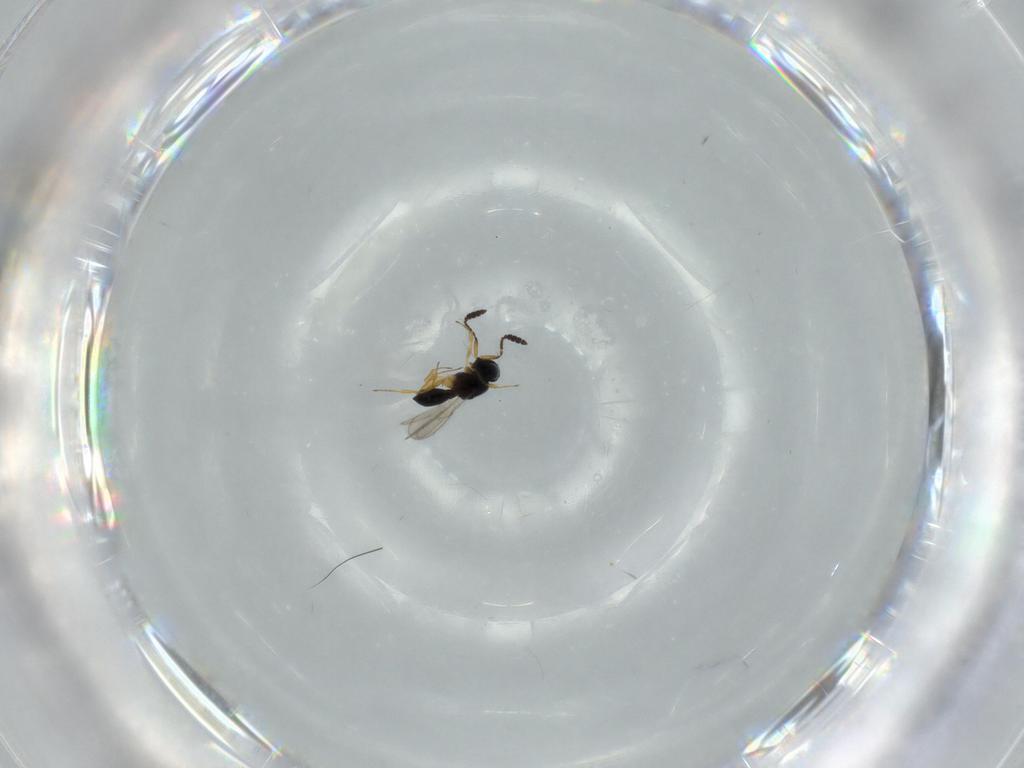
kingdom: Animalia
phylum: Arthropoda
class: Insecta
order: Hymenoptera
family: Scelionidae
